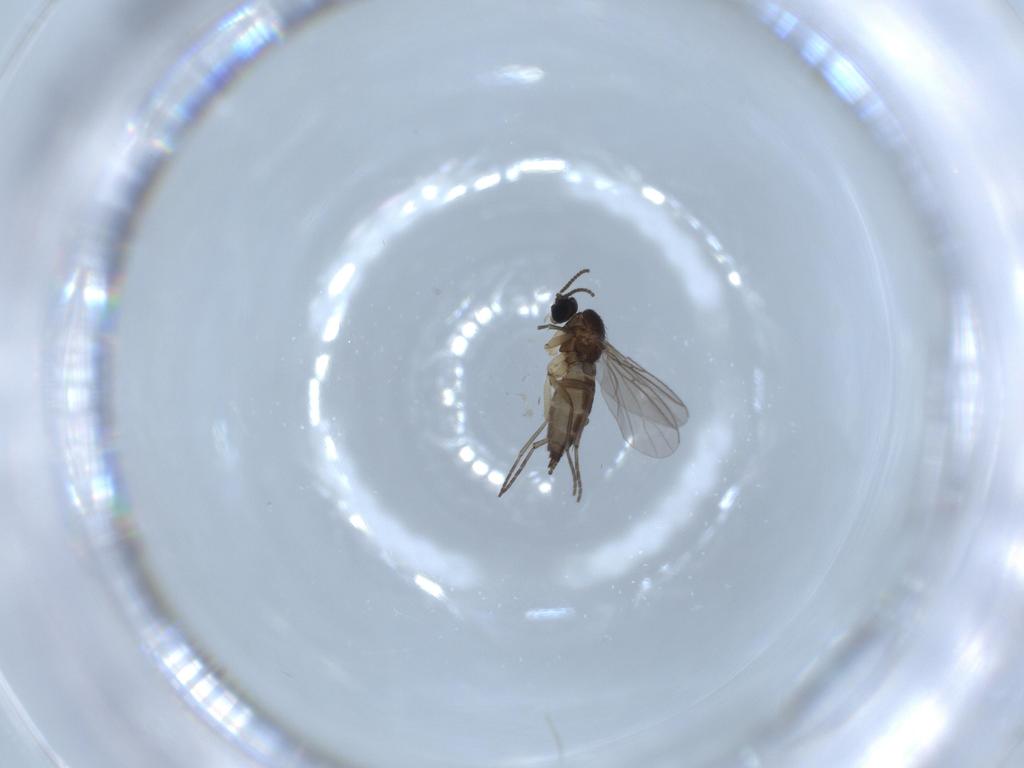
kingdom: Animalia
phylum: Arthropoda
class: Insecta
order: Diptera
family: Sciaridae
